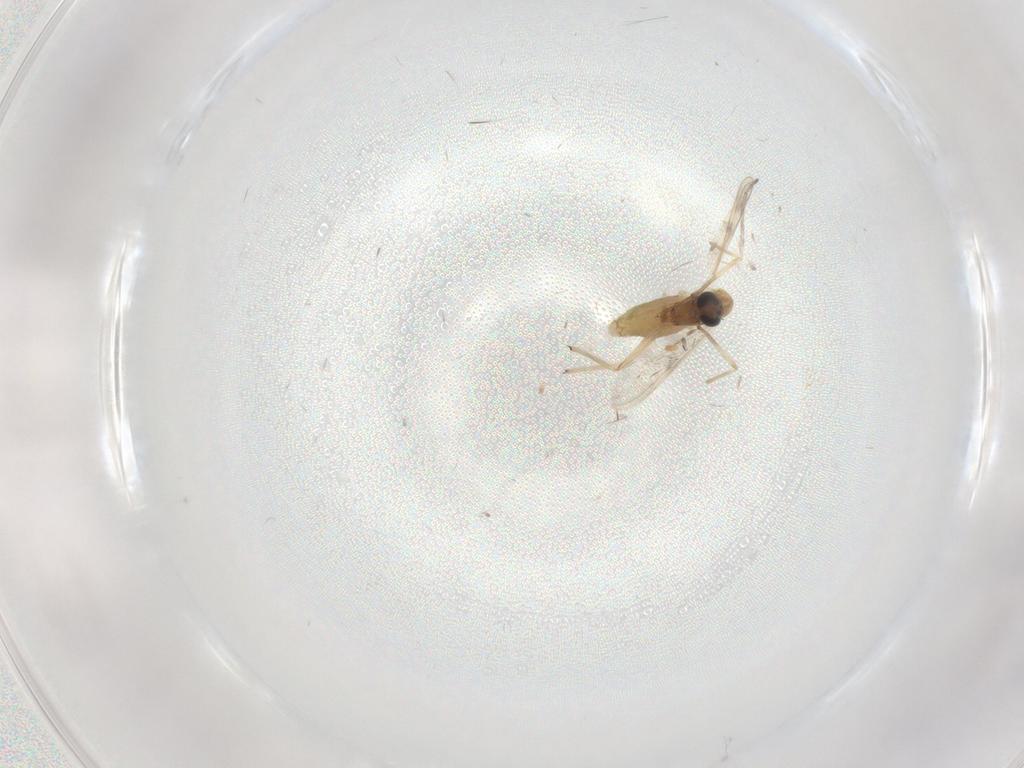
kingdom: Animalia
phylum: Arthropoda
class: Insecta
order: Diptera
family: Chironomidae
